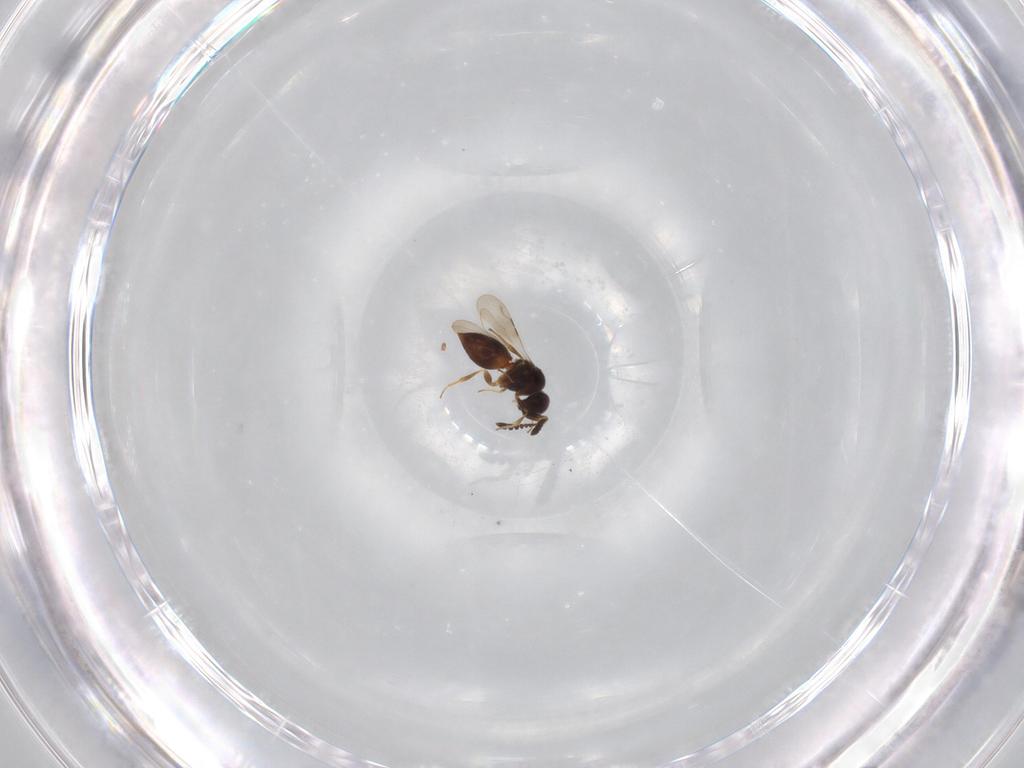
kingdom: Animalia
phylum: Arthropoda
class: Insecta
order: Hymenoptera
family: Ceraphronidae
